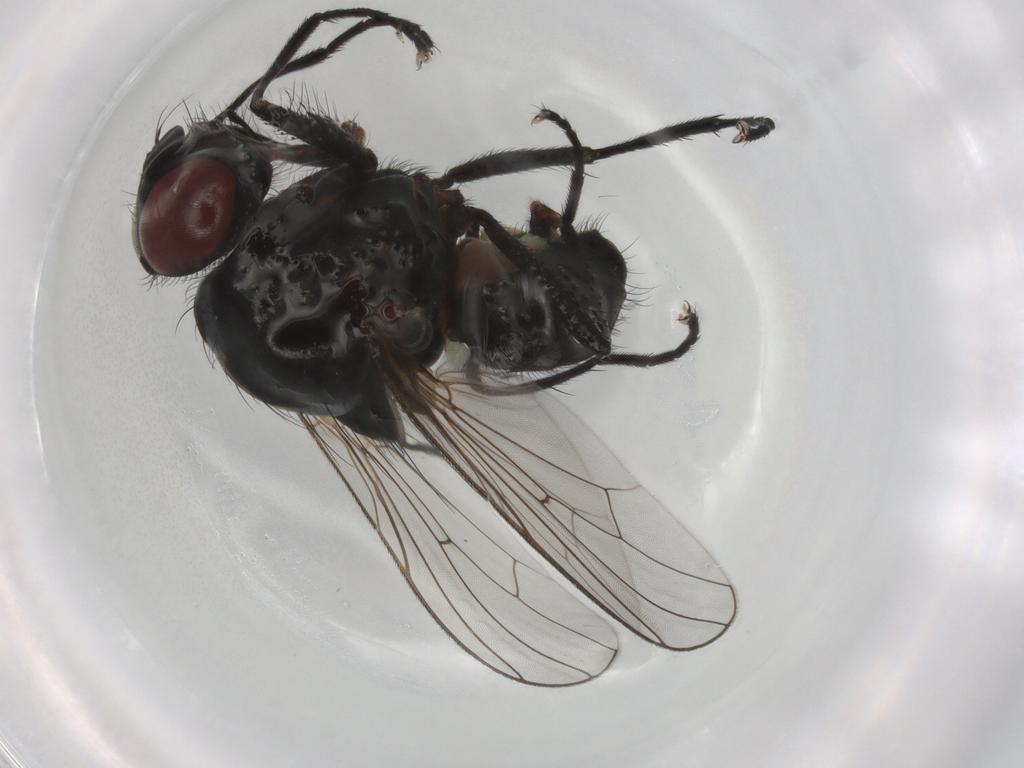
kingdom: Animalia
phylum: Arthropoda
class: Insecta
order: Diptera
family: Anthomyiidae
